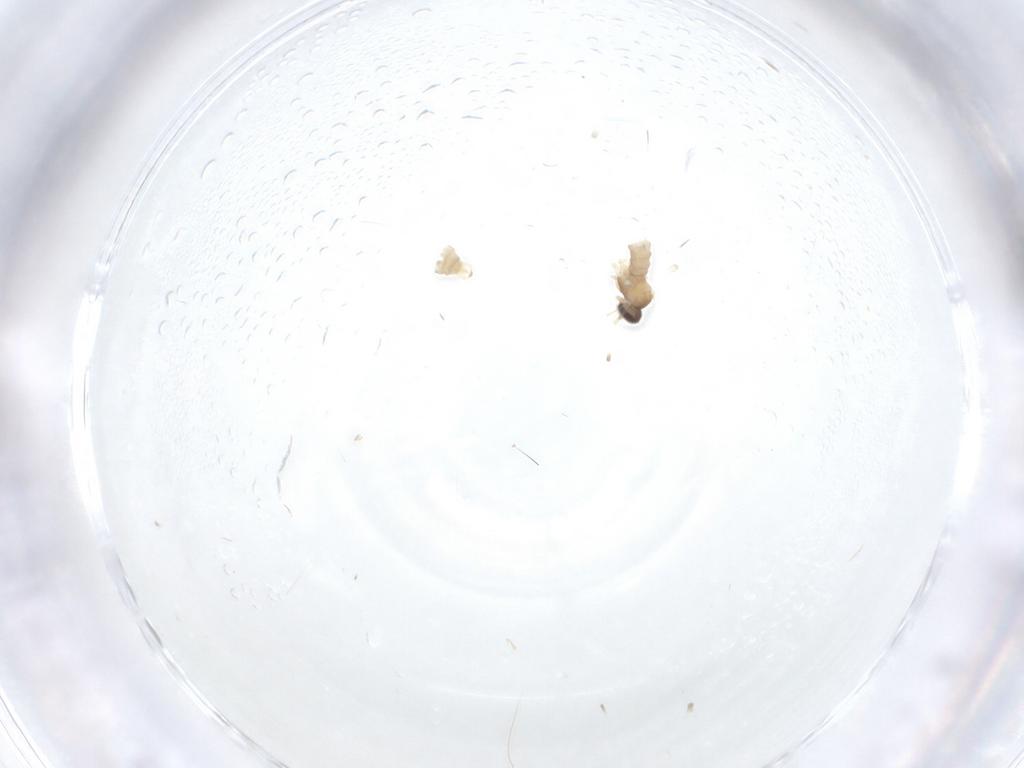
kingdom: Animalia
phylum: Arthropoda
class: Insecta
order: Diptera
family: Cecidomyiidae
